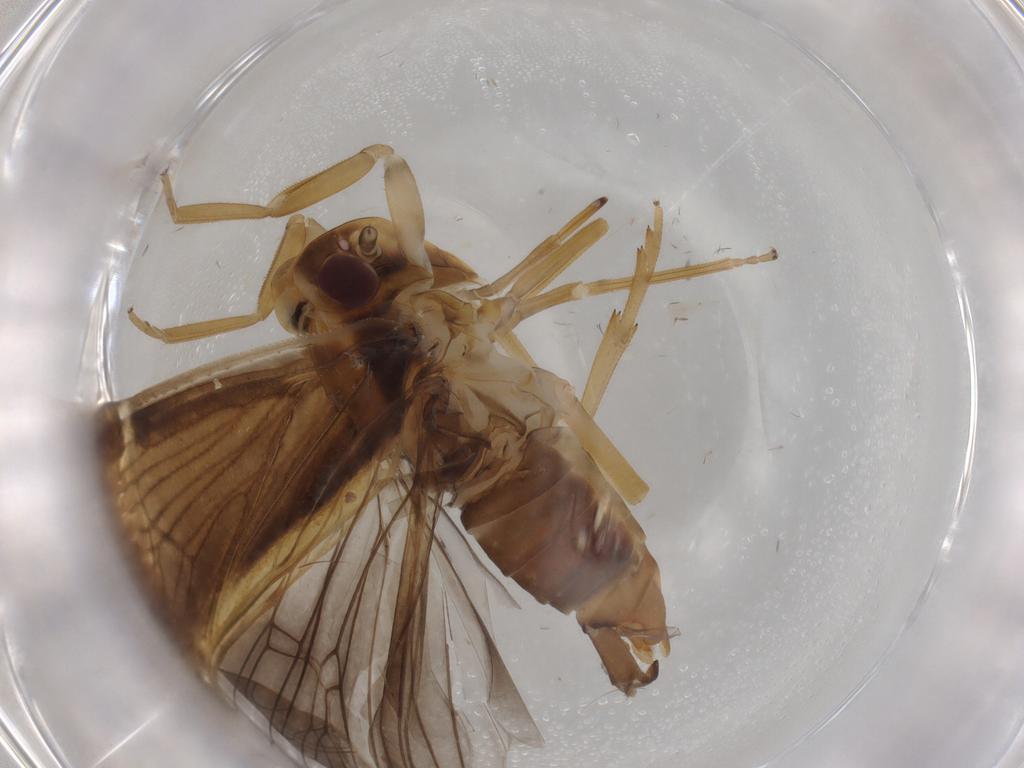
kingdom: Animalia
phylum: Arthropoda
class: Insecta
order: Hemiptera
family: Cixiidae
